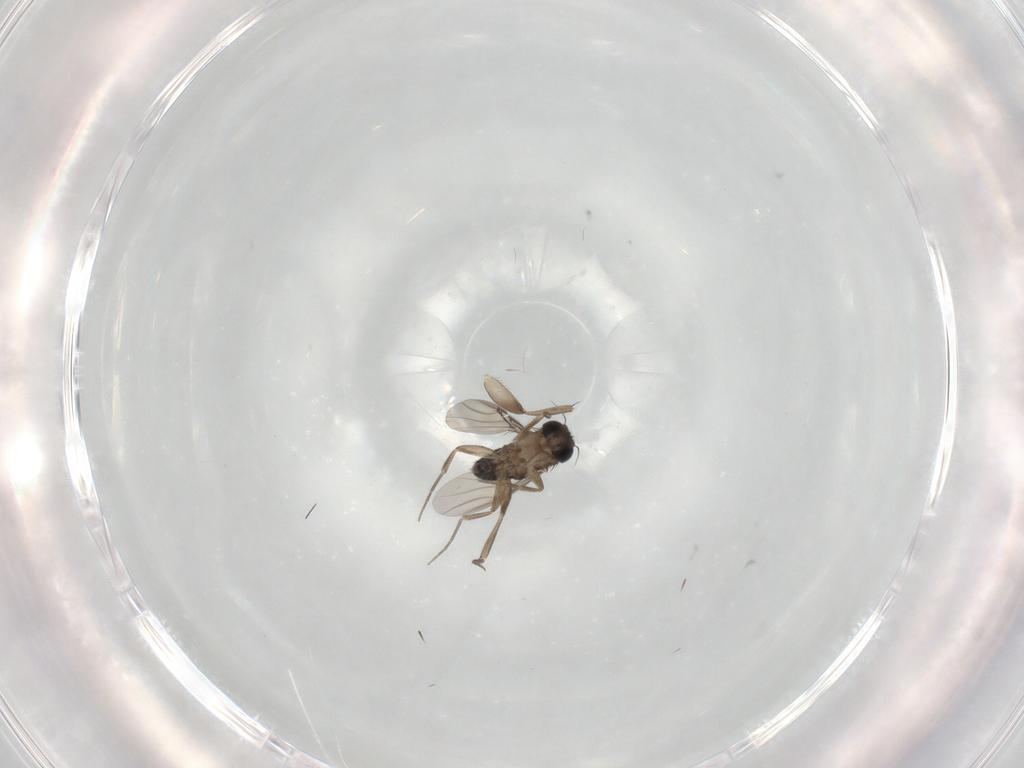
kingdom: Animalia
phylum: Arthropoda
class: Insecta
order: Diptera
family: Phoridae
